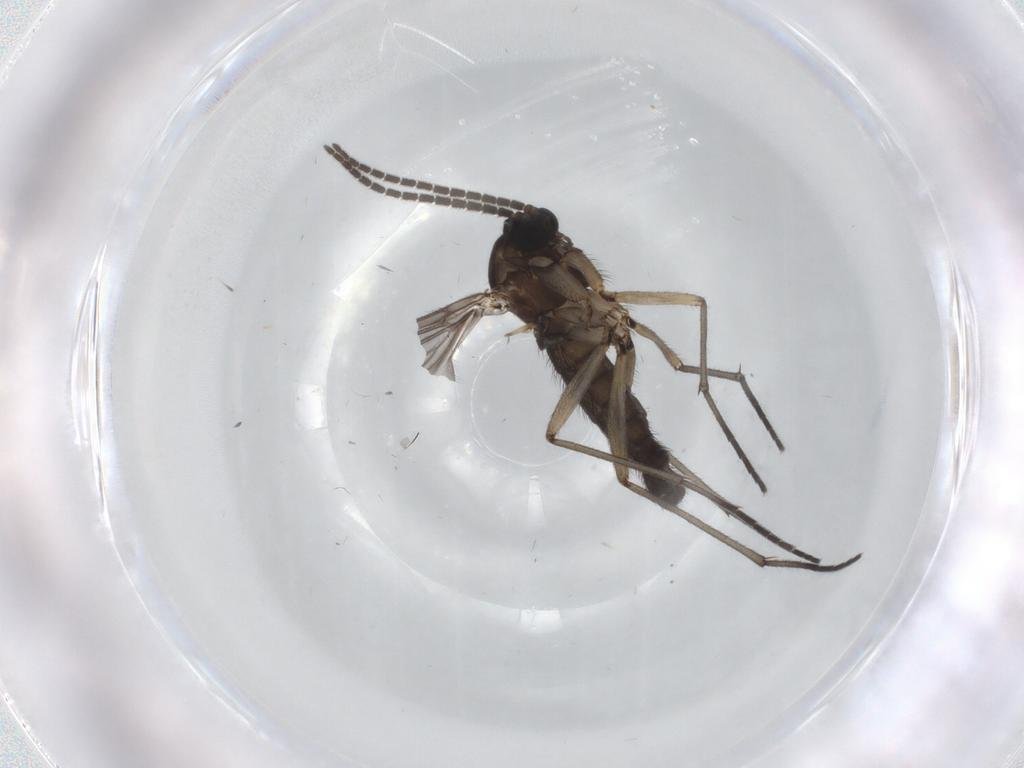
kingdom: Animalia
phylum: Arthropoda
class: Insecta
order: Diptera
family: Sciaridae
